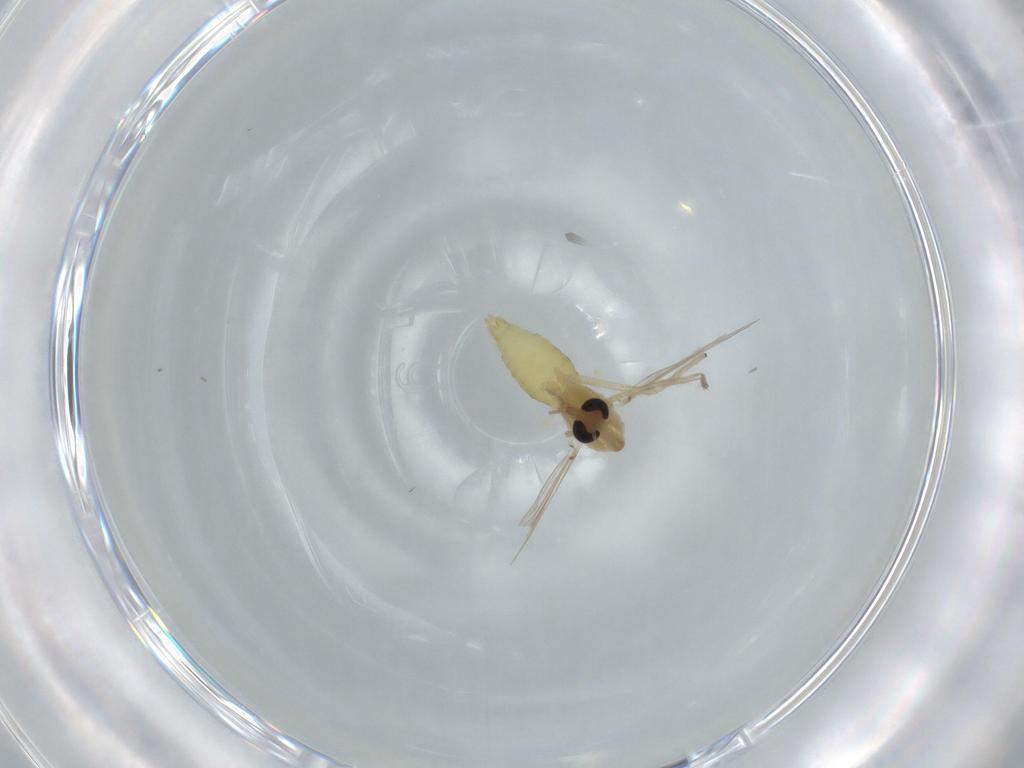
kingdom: Animalia
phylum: Arthropoda
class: Insecta
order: Diptera
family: Chironomidae
